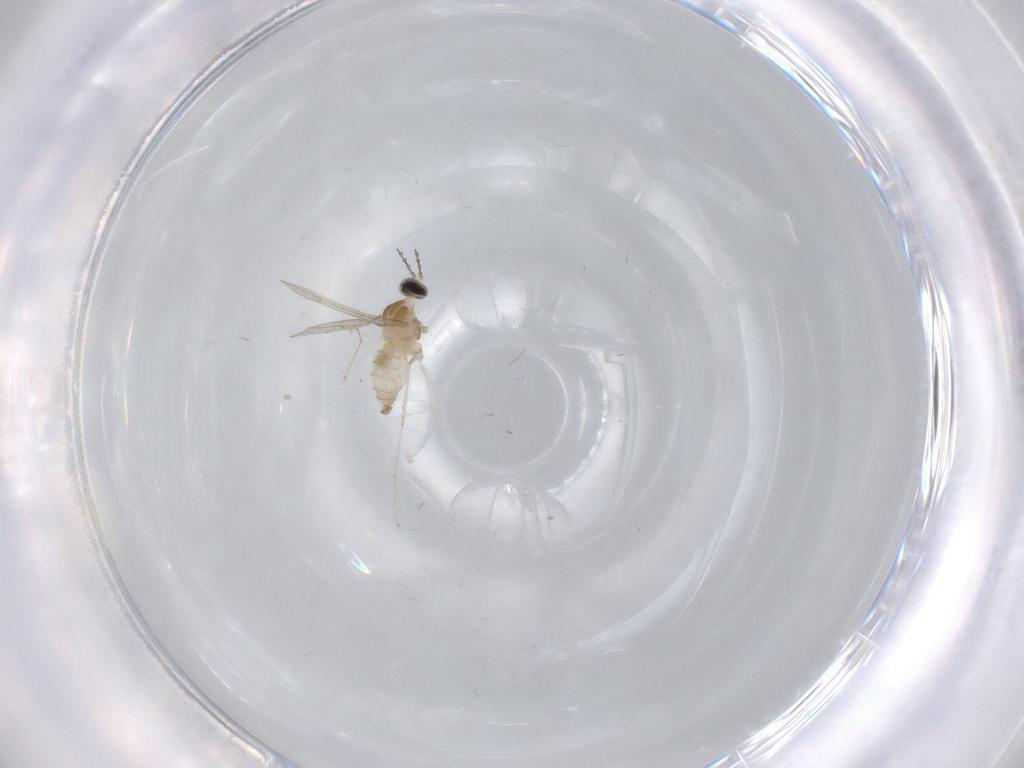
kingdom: Animalia
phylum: Arthropoda
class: Insecta
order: Diptera
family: Cecidomyiidae
